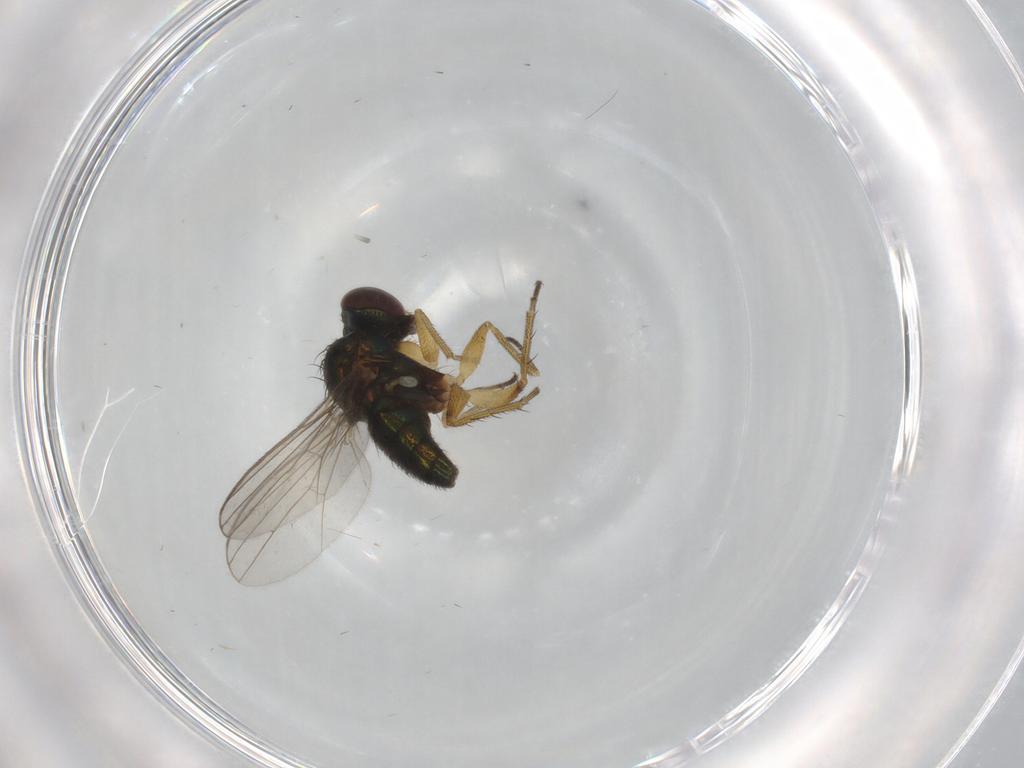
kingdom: Animalia
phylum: Arthropoda
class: Insecta
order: Diptera
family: Dolichopodidae
